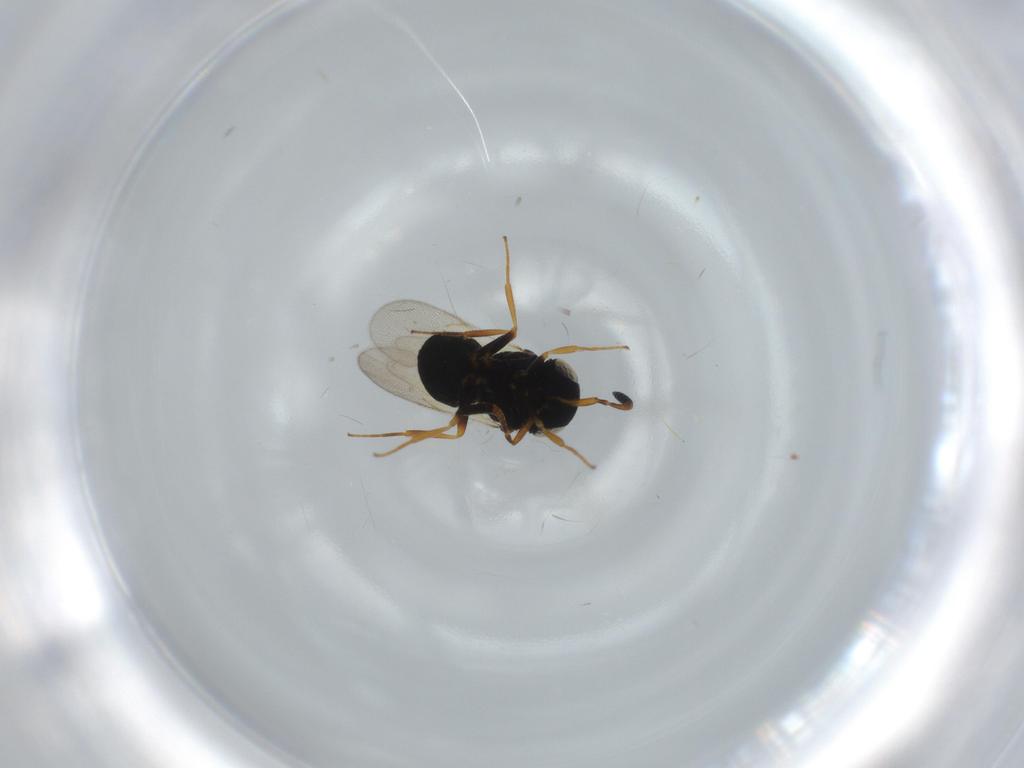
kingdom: Animalia
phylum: Arthropoda
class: Insecta
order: Hymenoptera
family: Scelionidae
